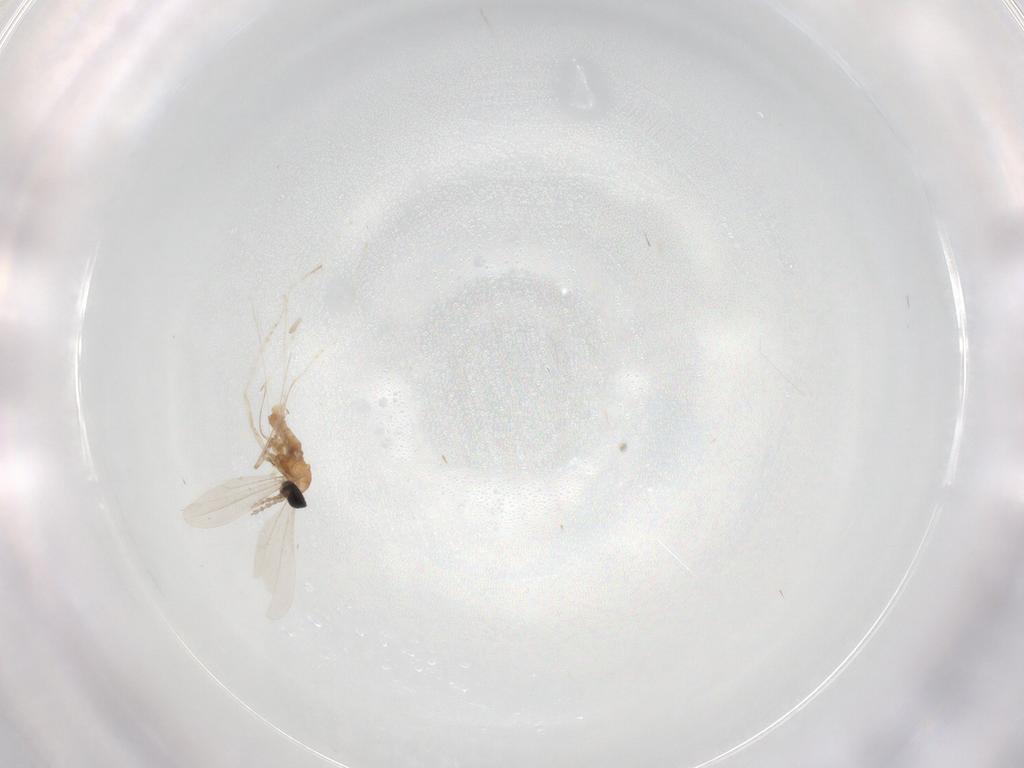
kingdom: Animalia
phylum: Arthropoda
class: Insecta
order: Diptera
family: Cecidomyiidae
